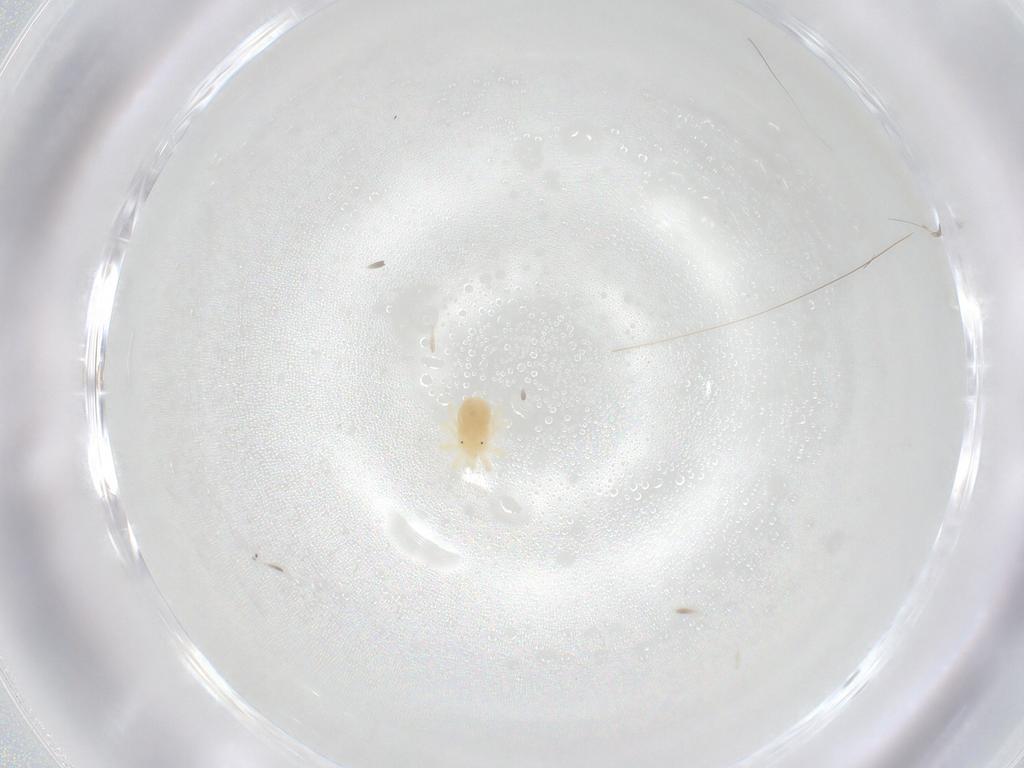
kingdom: Animalia
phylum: Arthropoda
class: Arachnida
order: Trombidiformes
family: Anystidae
